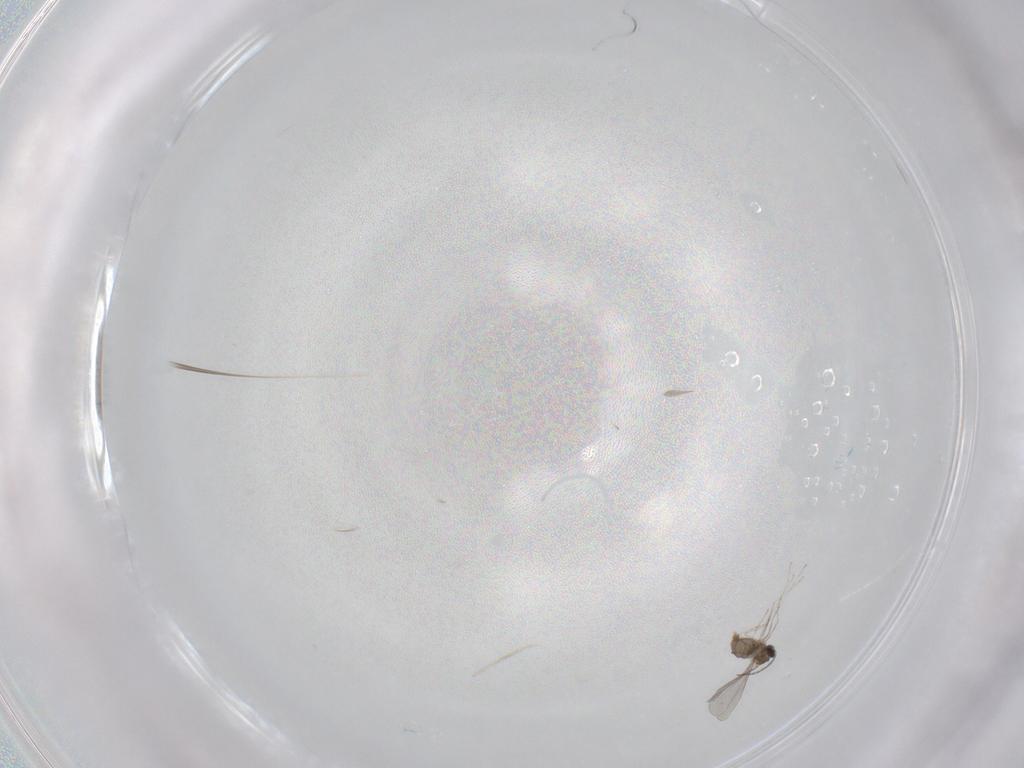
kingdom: Animalia
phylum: Arthropoda
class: Insecta
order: Diptera
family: Cecidomyiidae
